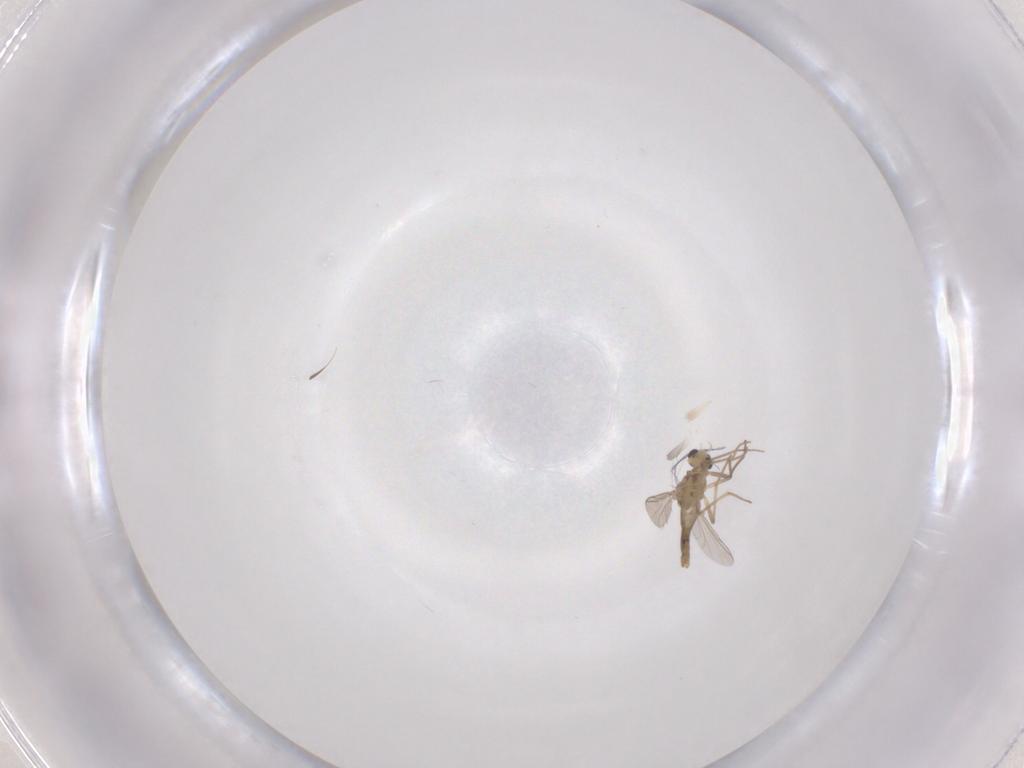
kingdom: Animalia
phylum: Arthropoda
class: Insecta
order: Diptera
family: Chironomidae
